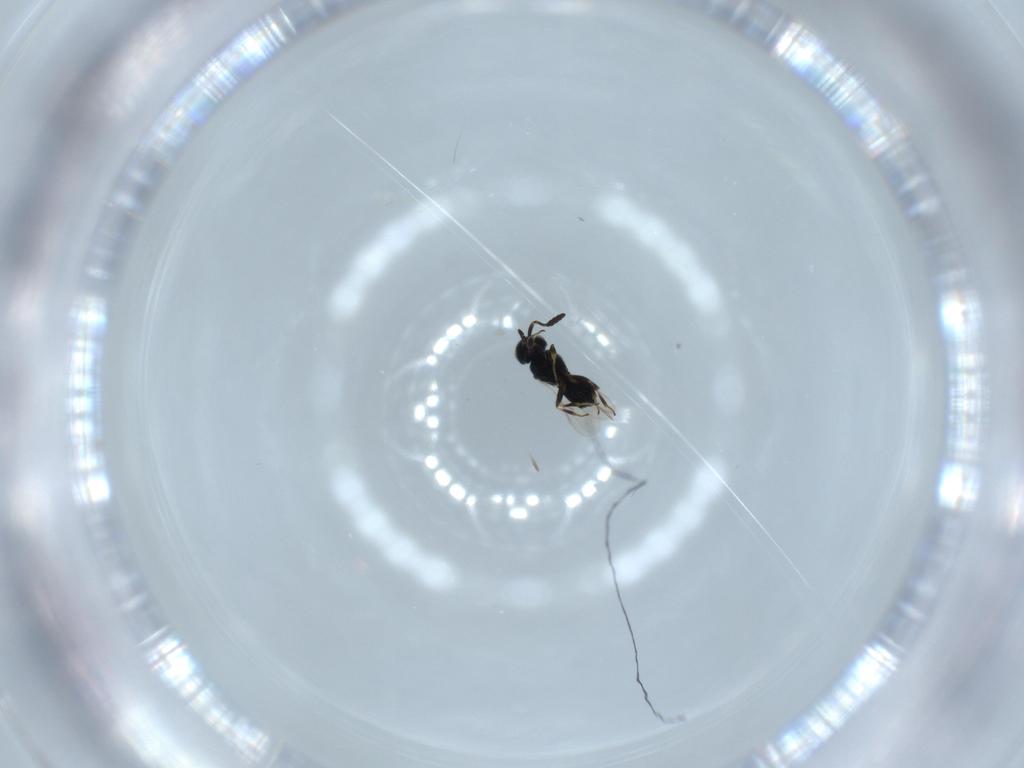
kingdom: Animalia
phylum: Arthropoda
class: Insecta
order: Hymenoptera
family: Scelionidae
